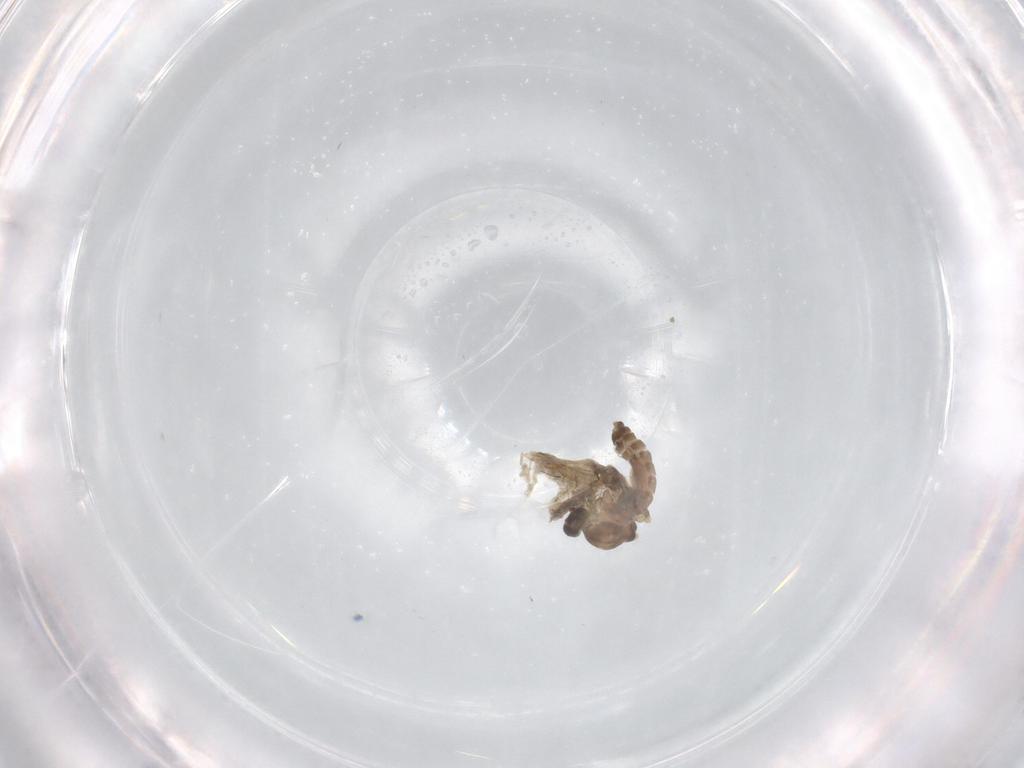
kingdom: Animalia
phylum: Arthropoda
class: Insecta
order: Diptera
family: Ceratopogonidae
